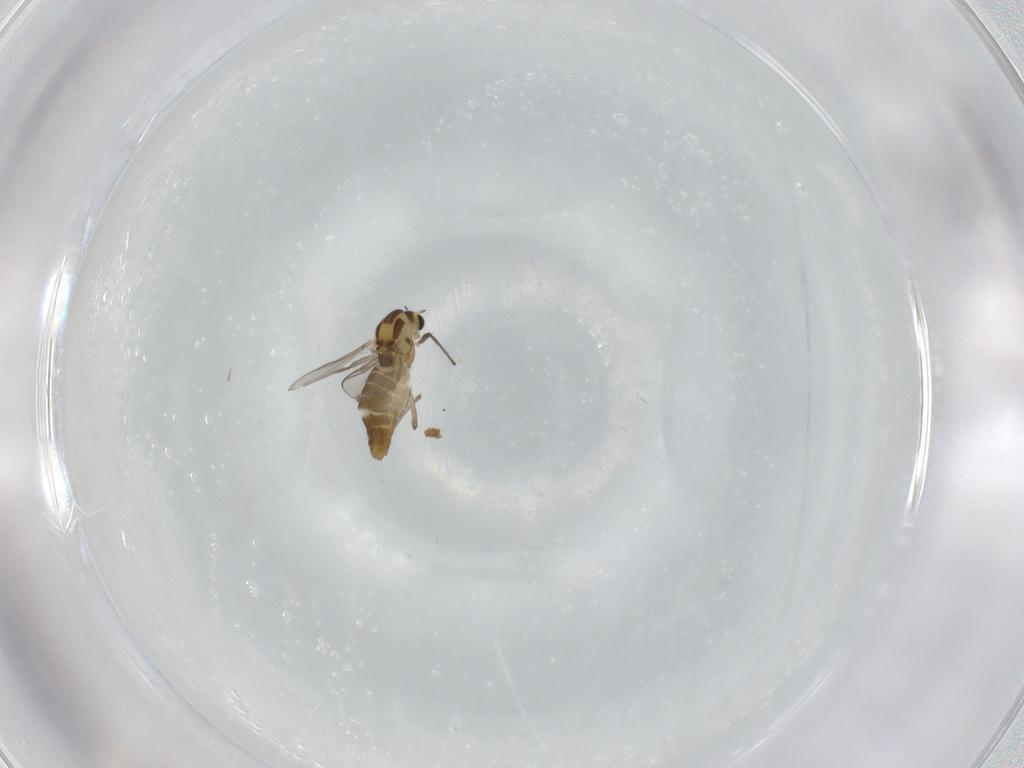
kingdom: Animalia
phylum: Arthropoda
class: Insecta
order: Diptera
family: Chironomidae
